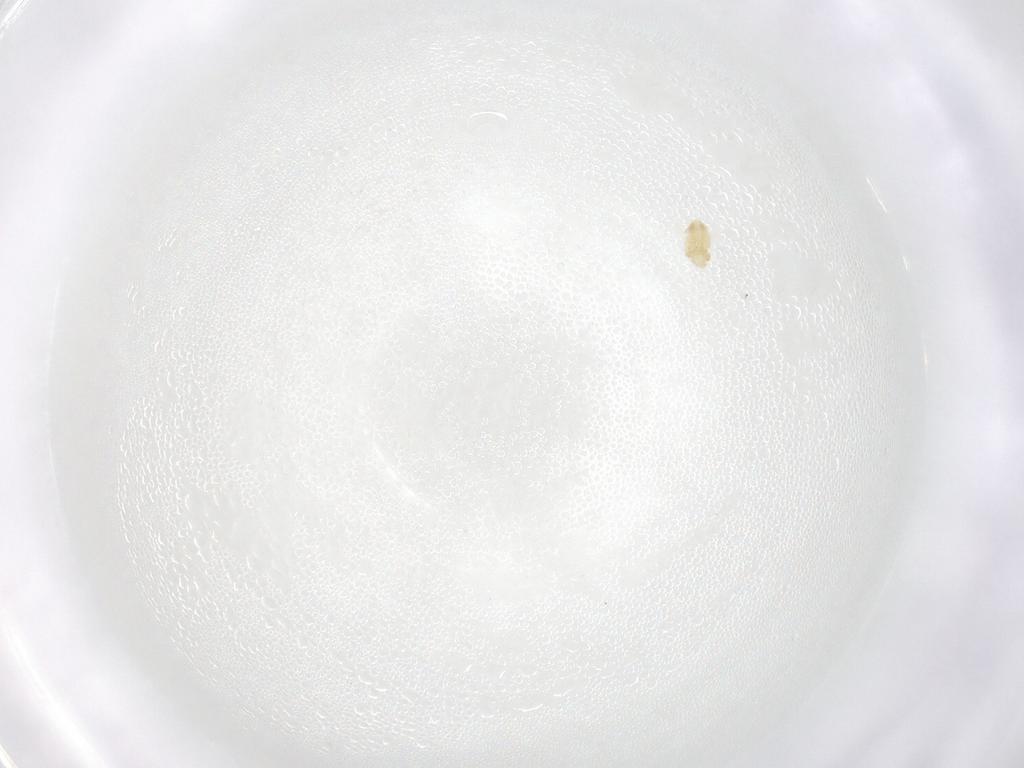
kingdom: Animalia
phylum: Arthropoda
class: Arachnida
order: Trombidiformes
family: Eupodidae
